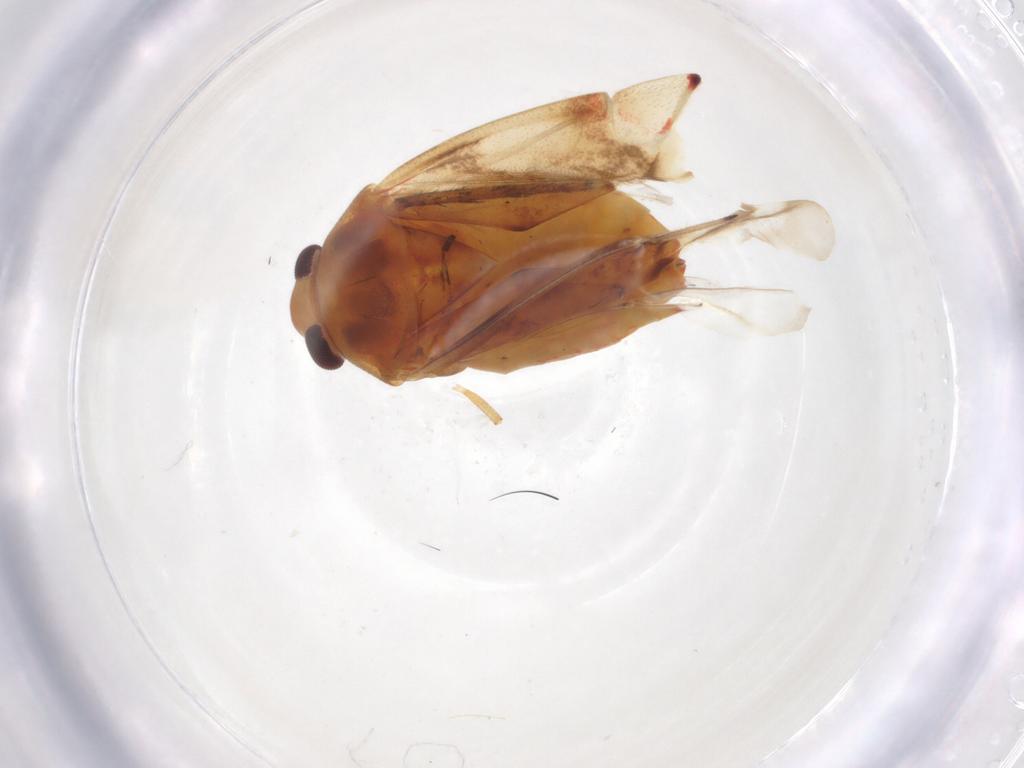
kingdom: Animalia
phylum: Arthropoda
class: Insecta
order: Hemiptera
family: Miridae
